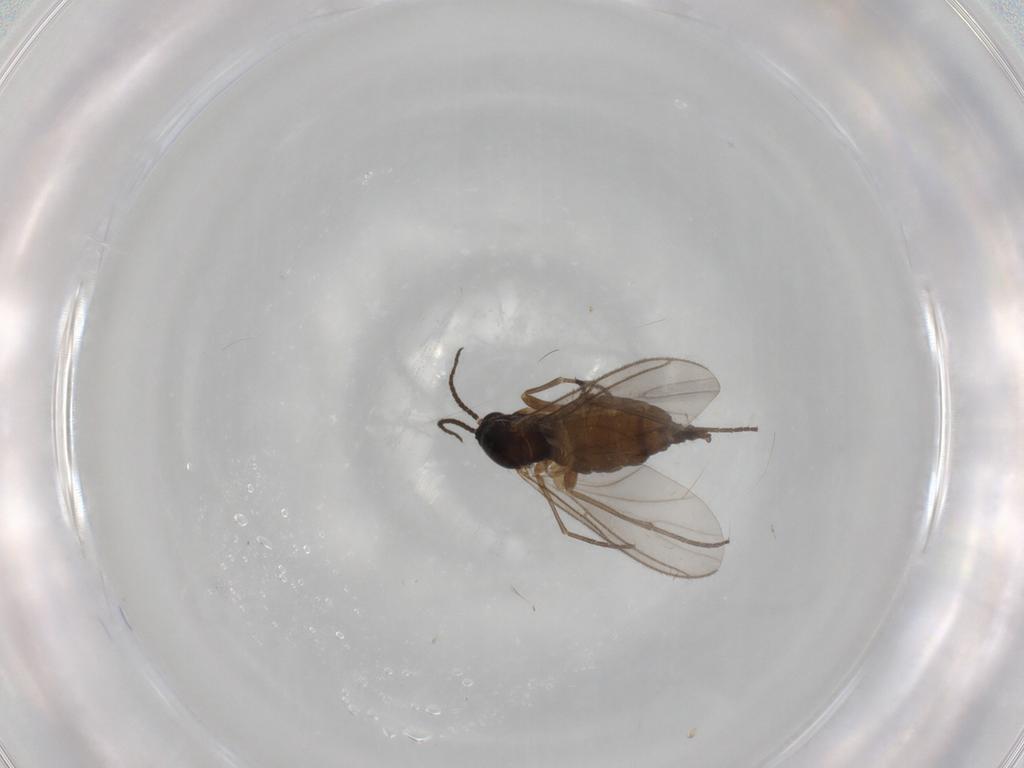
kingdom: Animalia
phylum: Arthropoda
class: Insecta
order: Diptera
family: Sciaridae
